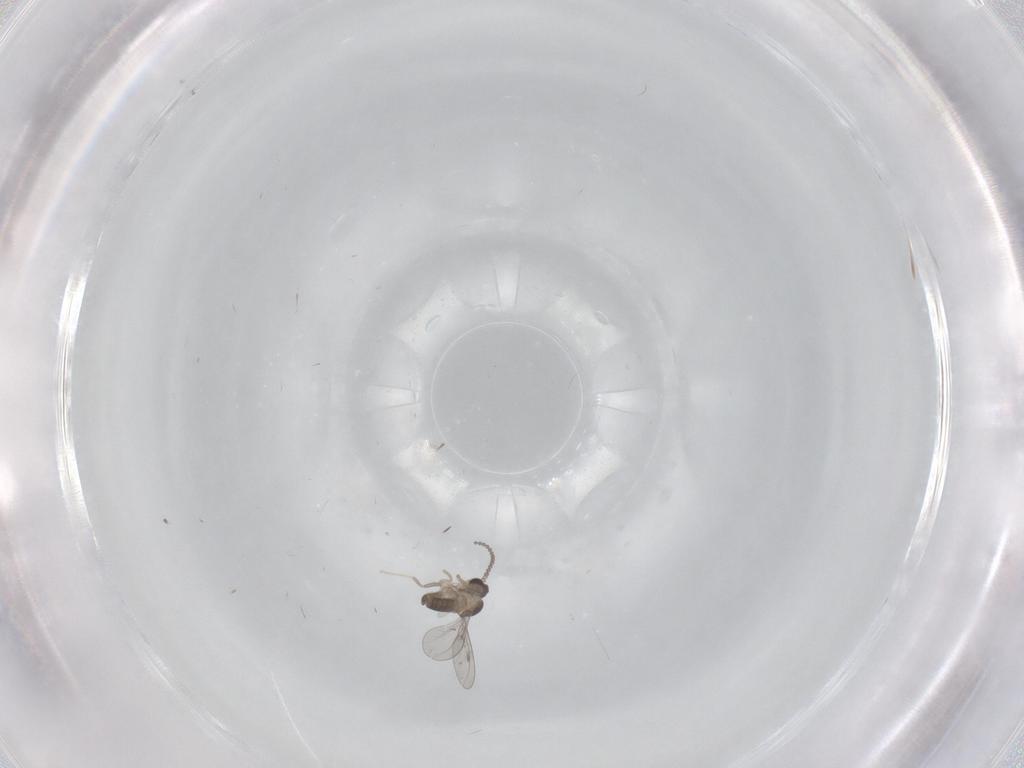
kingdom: Animalia
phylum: Arthropoda
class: Insecta
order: Diptera
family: Cecidomyiidae
